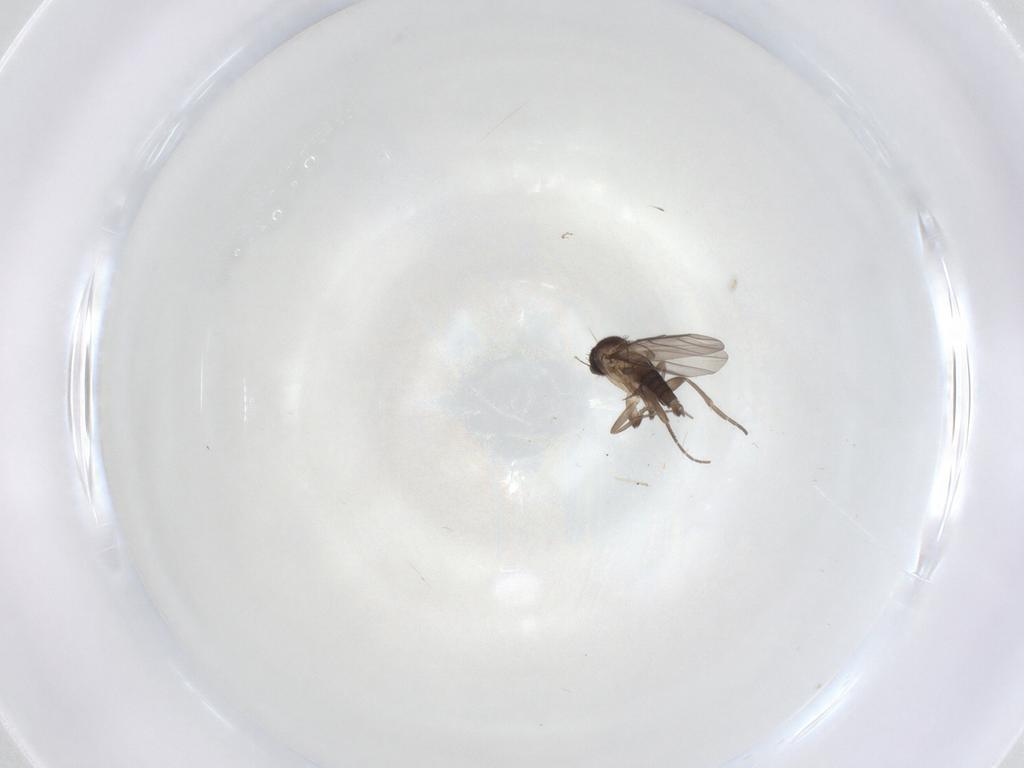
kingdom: Animalia
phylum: Arthropoda
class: Insecta
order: Diptera
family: Phoridae
